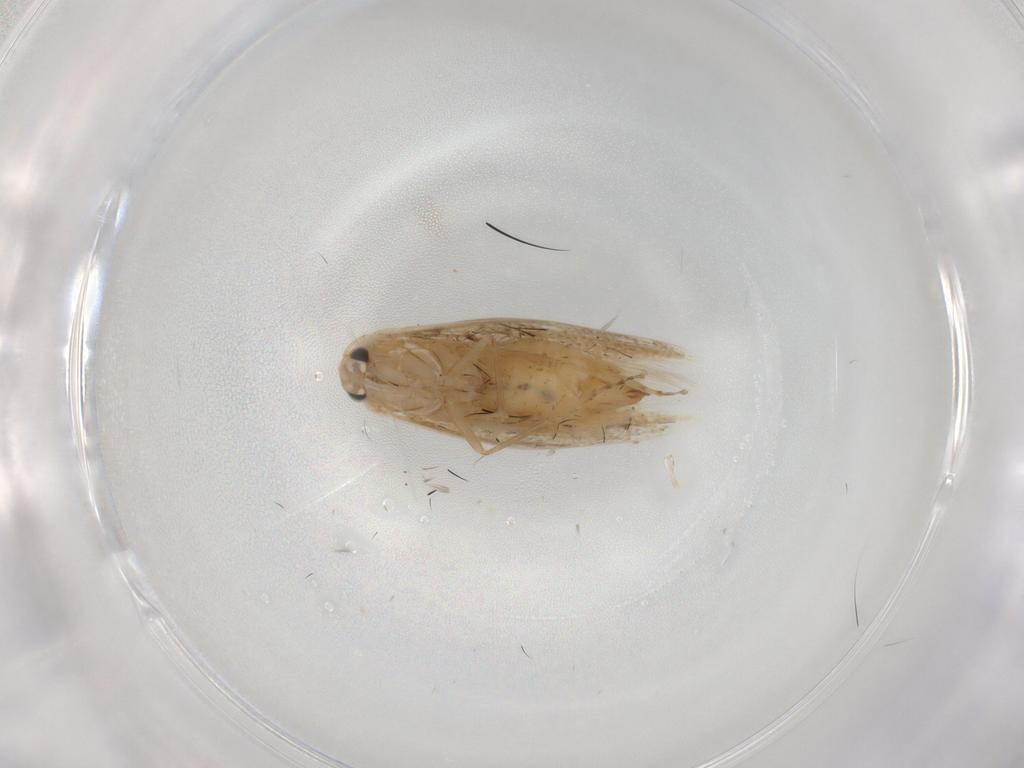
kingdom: Animalia
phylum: Arthropoda
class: Insecta
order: Lepidoptera
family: Bucculatricidae
